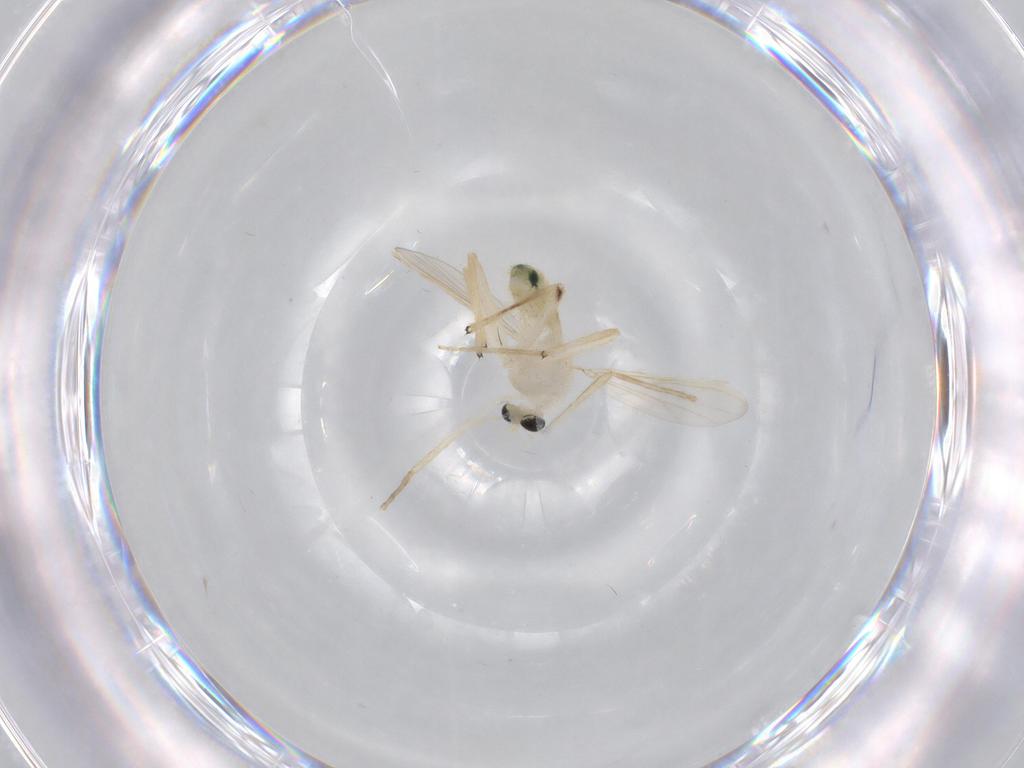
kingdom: Animalia
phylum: Arthropoda
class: Insecta
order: Diptera
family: Chironomidae
